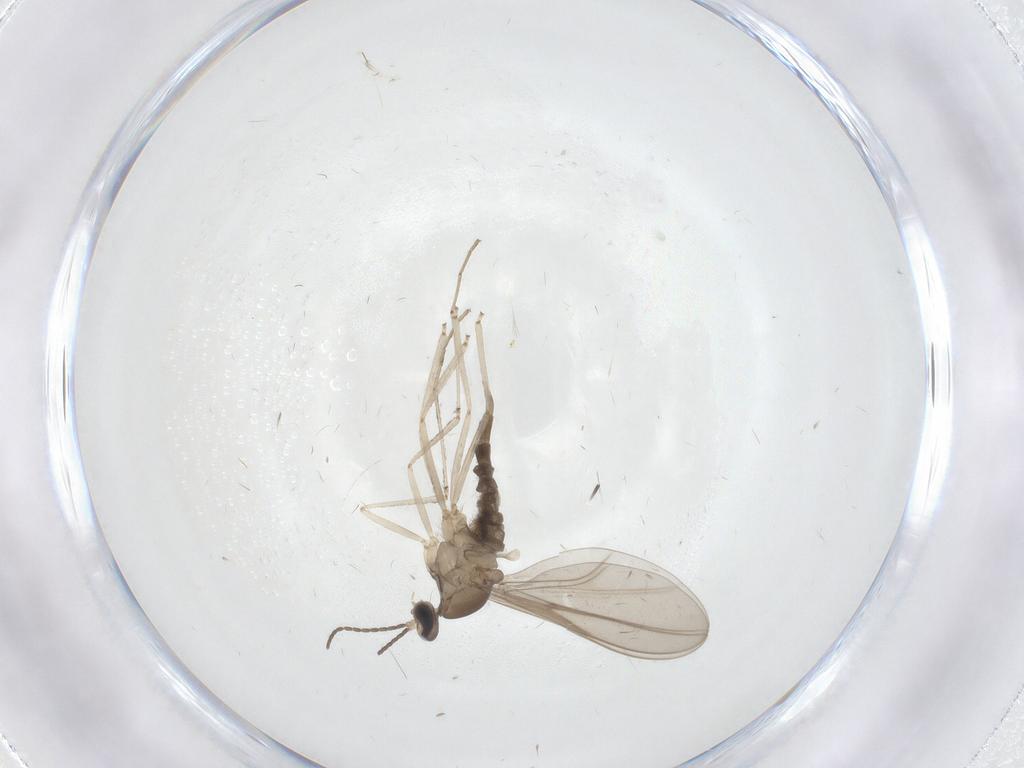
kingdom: Animalia
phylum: Arthropoda
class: Insecta
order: Diptera
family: Cecidomyiidae
